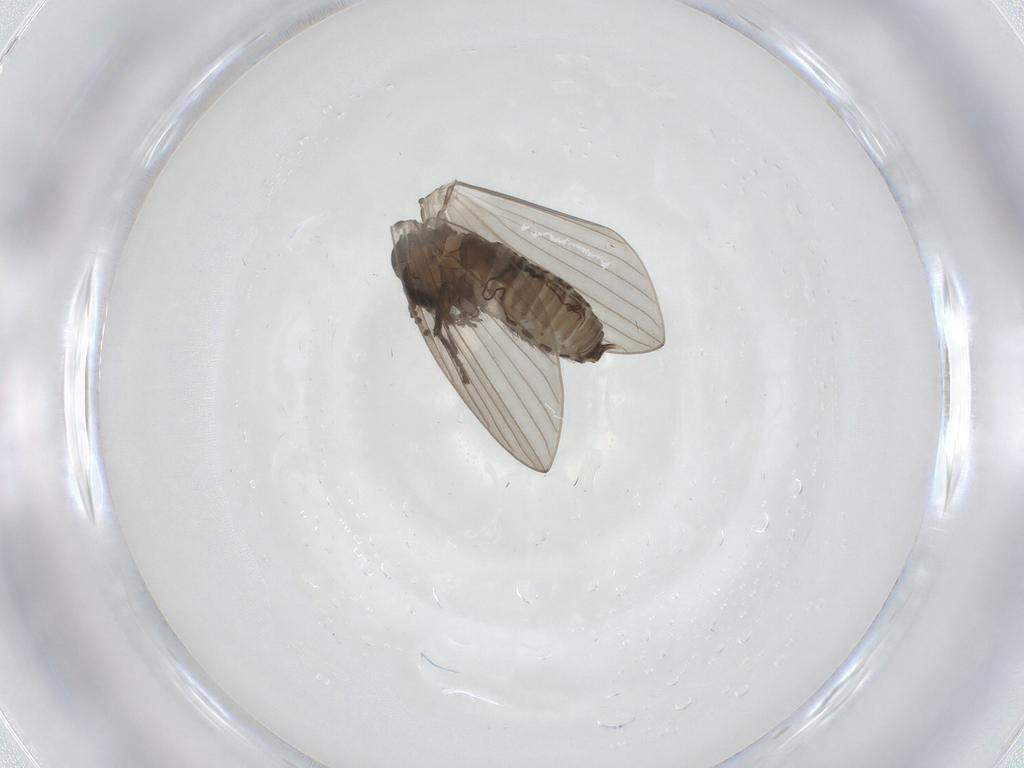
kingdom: Animalia
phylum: Arthropoda
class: Insecta
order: Diptera
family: Psychodidae
